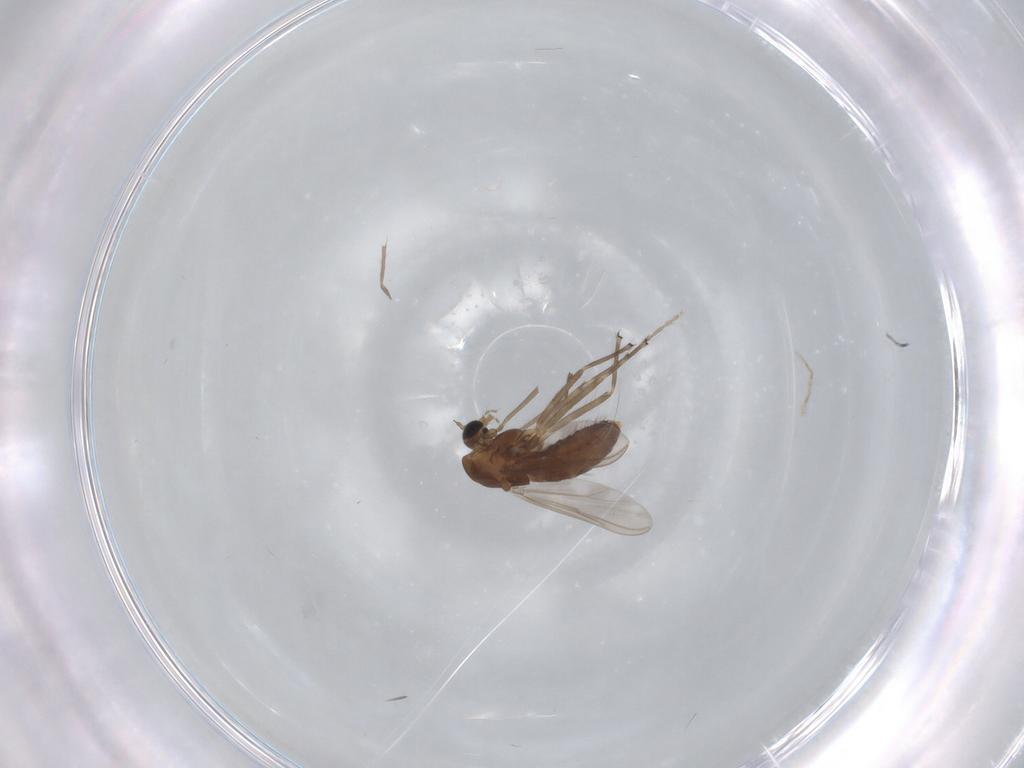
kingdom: Animalia
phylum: Arthropoda
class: Insecta
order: Diptera
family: Chironomidae
